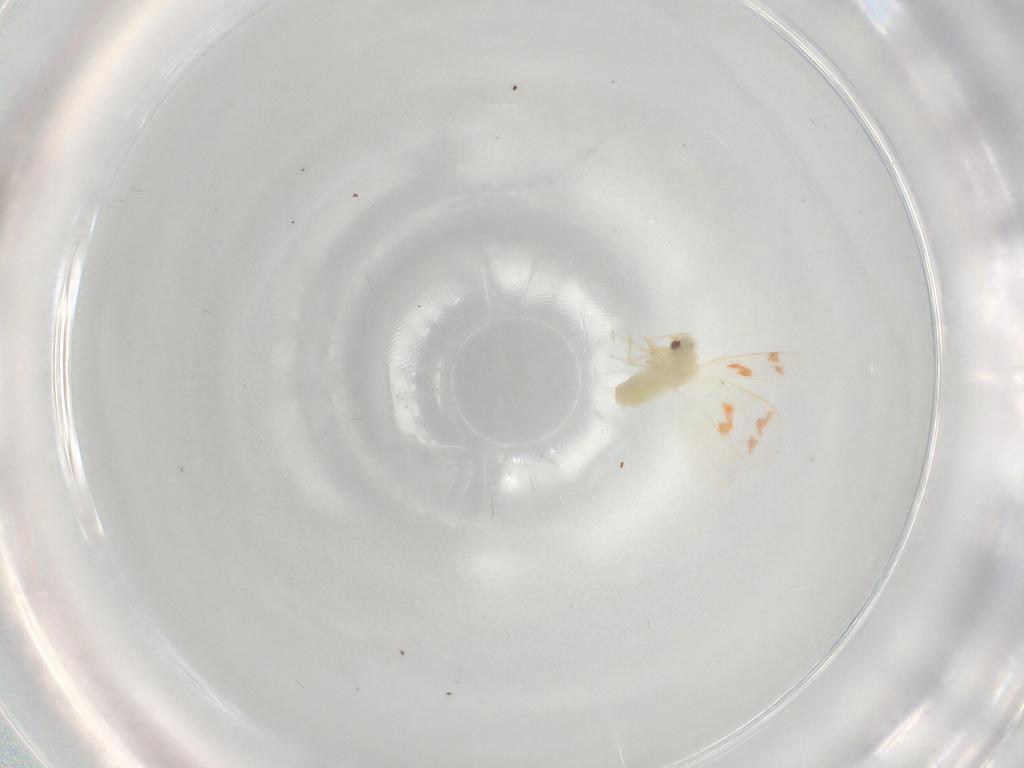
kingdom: Animalia
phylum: Arthropoda
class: Insecta
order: Hemiptera
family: Aleyrodidae
